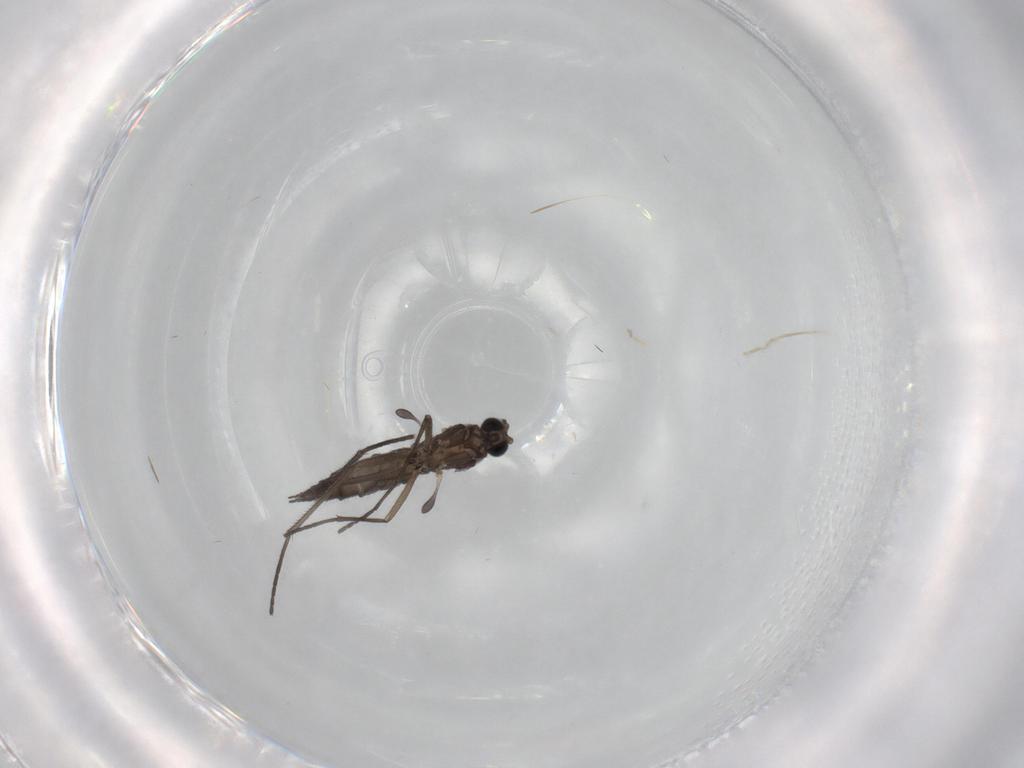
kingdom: Animalia
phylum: Arthropoda
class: Insecta
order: Diptera
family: Sciaridae
